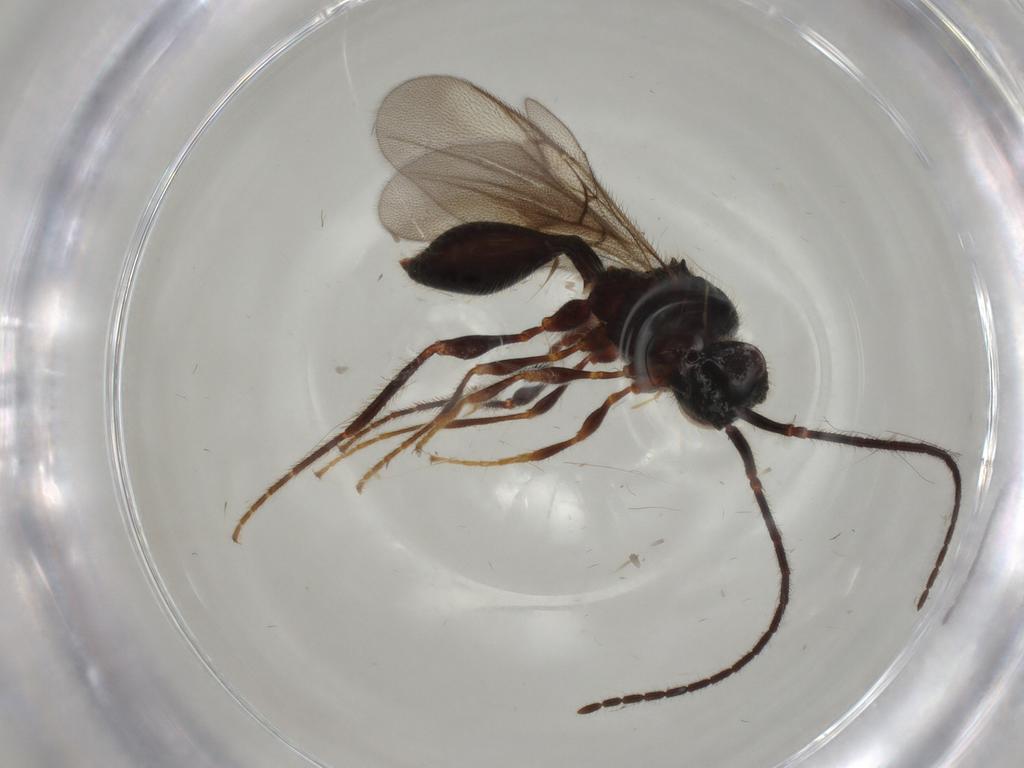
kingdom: Animalia
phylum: Arthropoda
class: Insecta
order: Hymenoptera
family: Diapriidae
